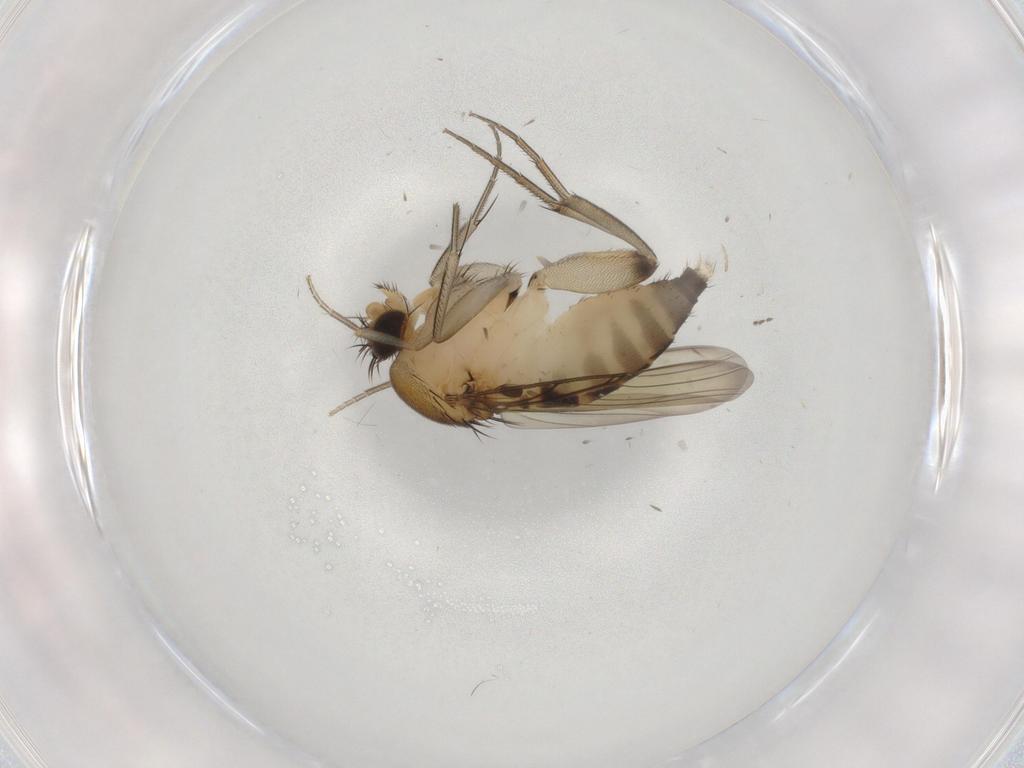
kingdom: Animalia
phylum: Arthropoda
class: Insecta
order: Diptera
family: Phoridae
